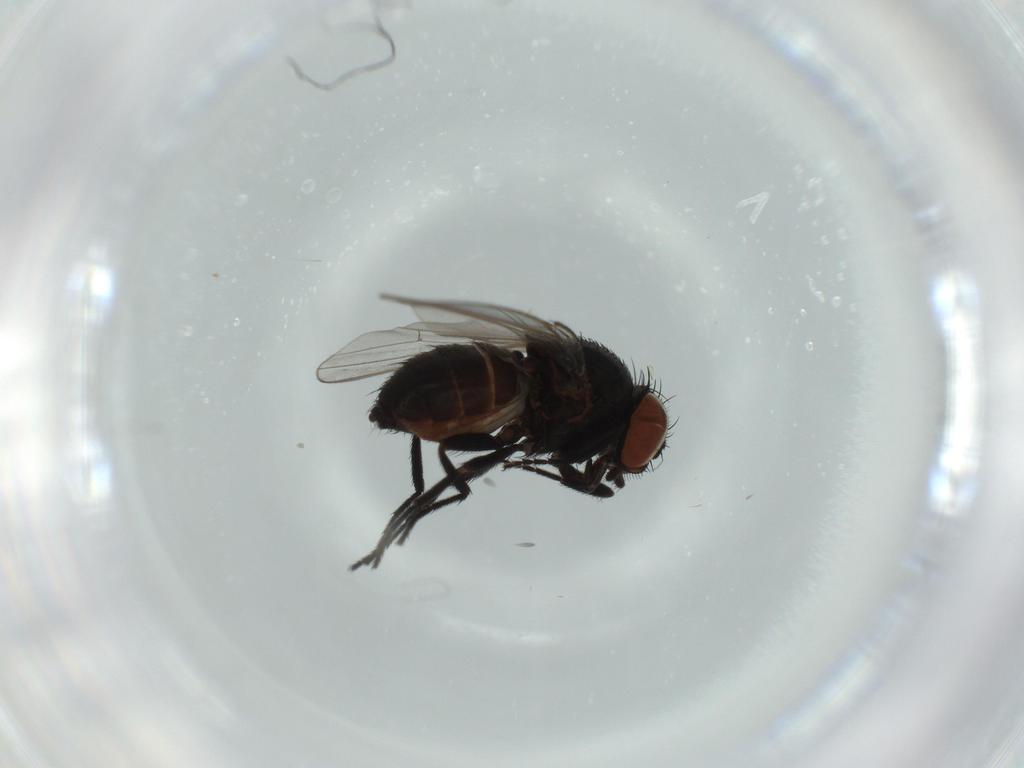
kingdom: Animalia
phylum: Arthropoda
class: Insecta
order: Diptera
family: Milichiidae
